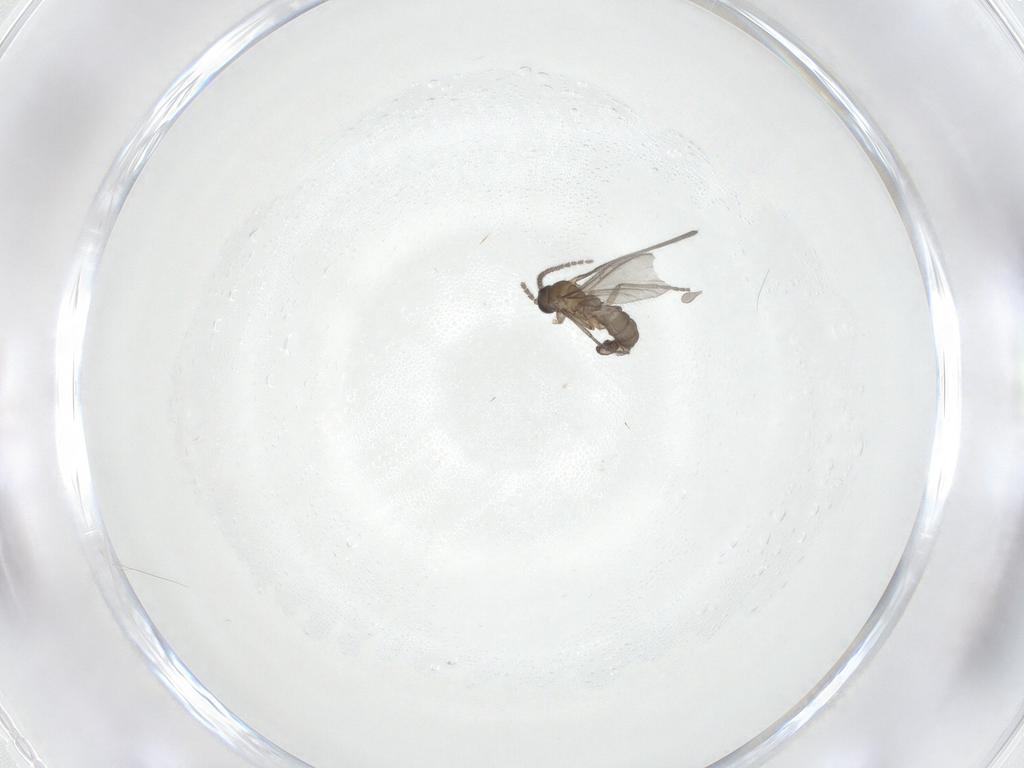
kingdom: Animalia
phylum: Arthropoda
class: Insecta
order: Diptera
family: Sciaridae
